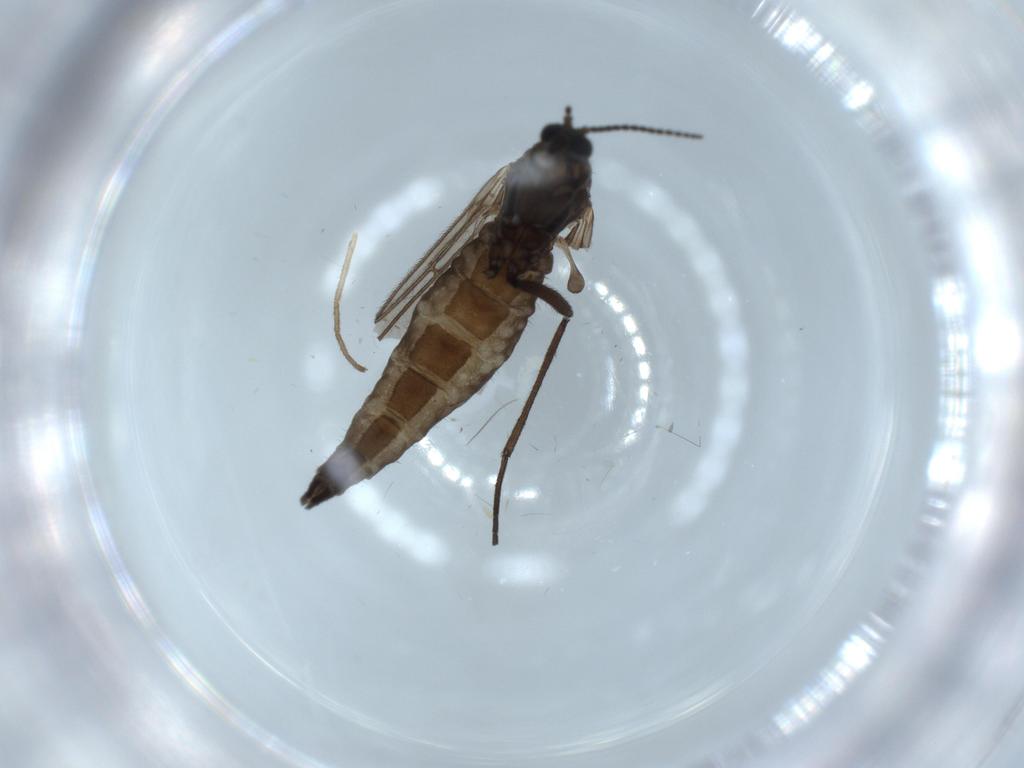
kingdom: Animalia
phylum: Arthropoda
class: Insecta
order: Diptera
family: Sciaridae
